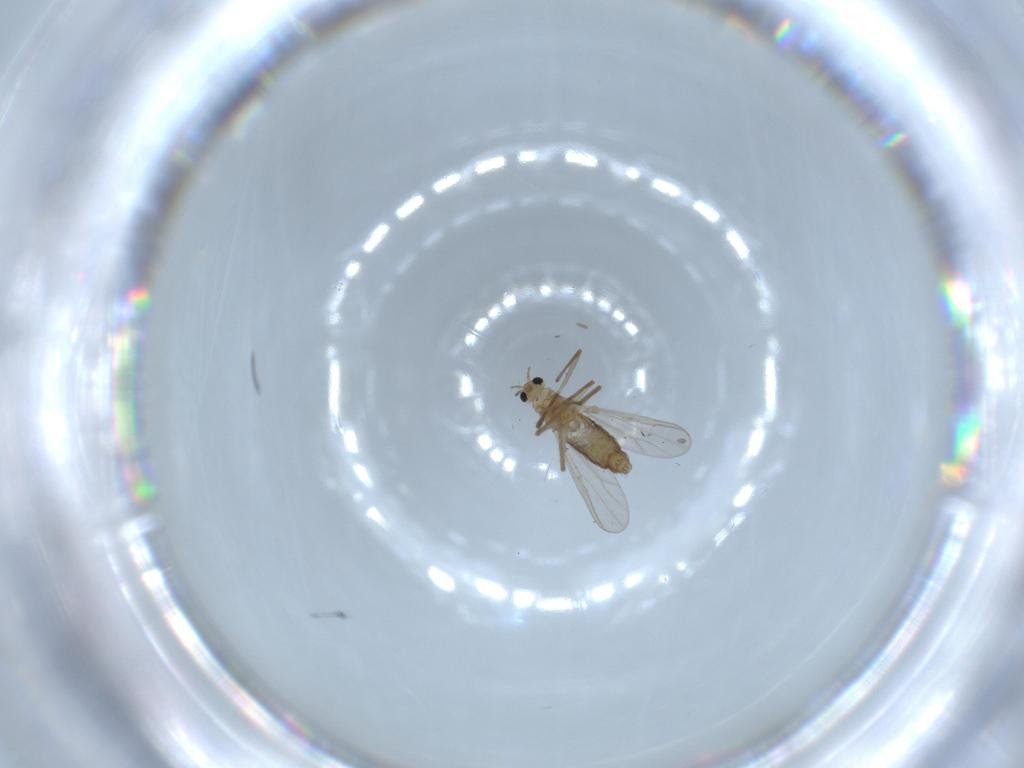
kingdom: Animalia
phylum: Arthropoda
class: Insecta
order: Diptera
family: Chironomidae
